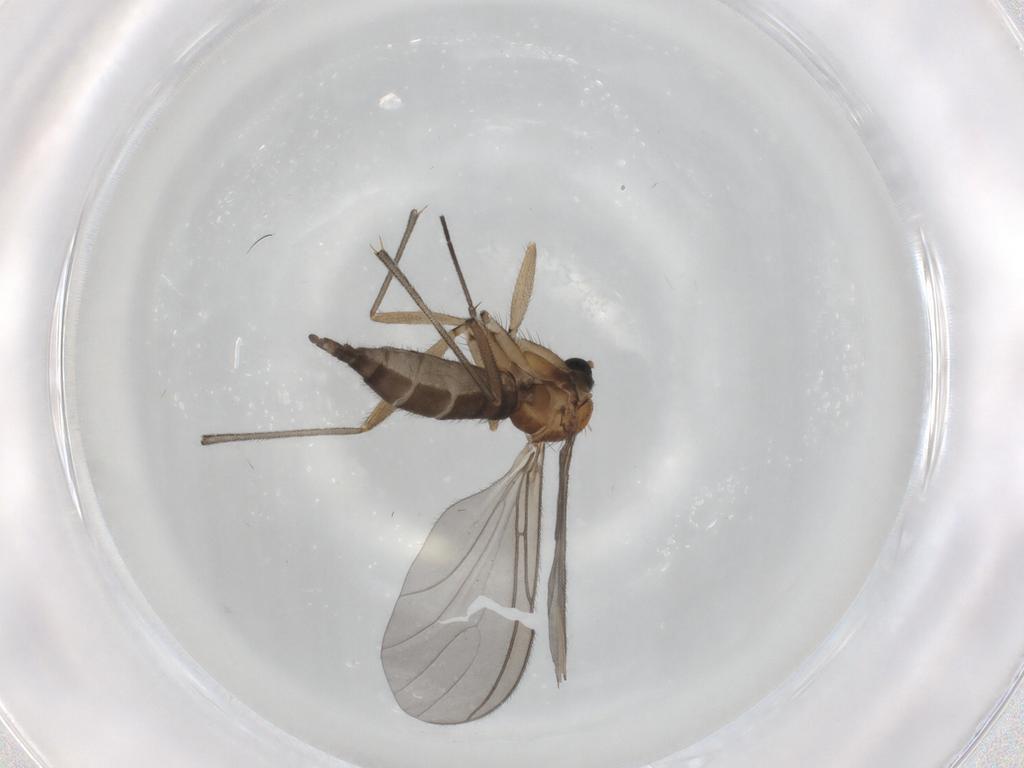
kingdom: Animalia
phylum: Arthropoda
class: Insecta
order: Diptera
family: Sciaridae
